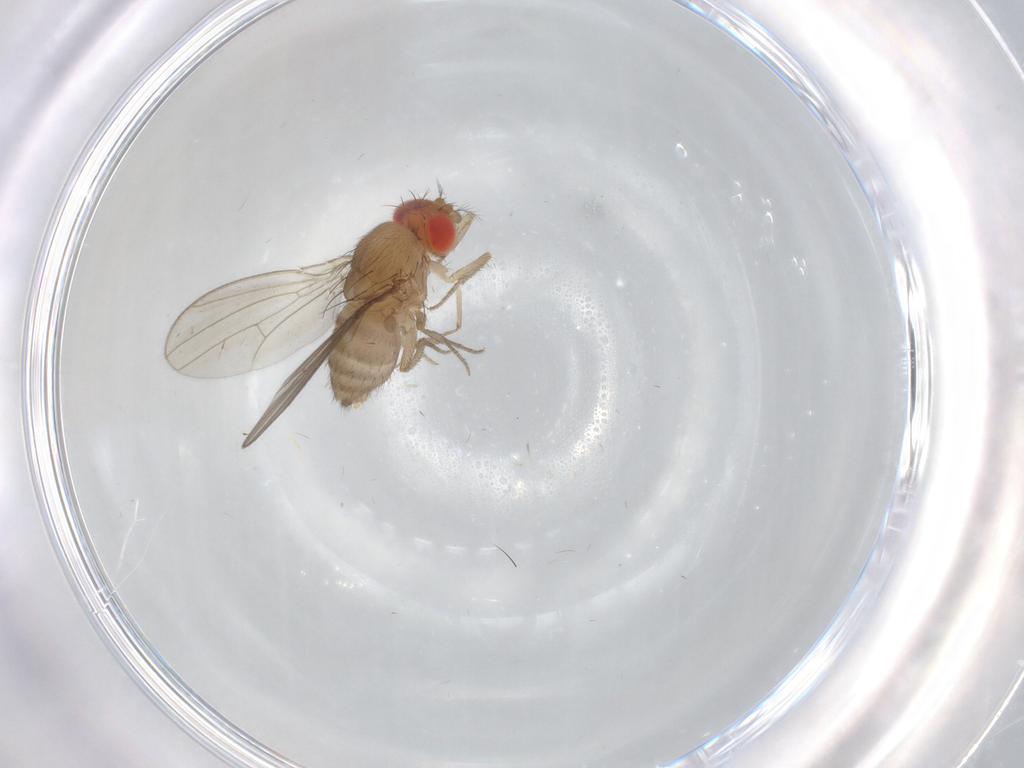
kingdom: Animalia
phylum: Arthropoda
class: Insecta
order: Diptera
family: Drosophilidae
